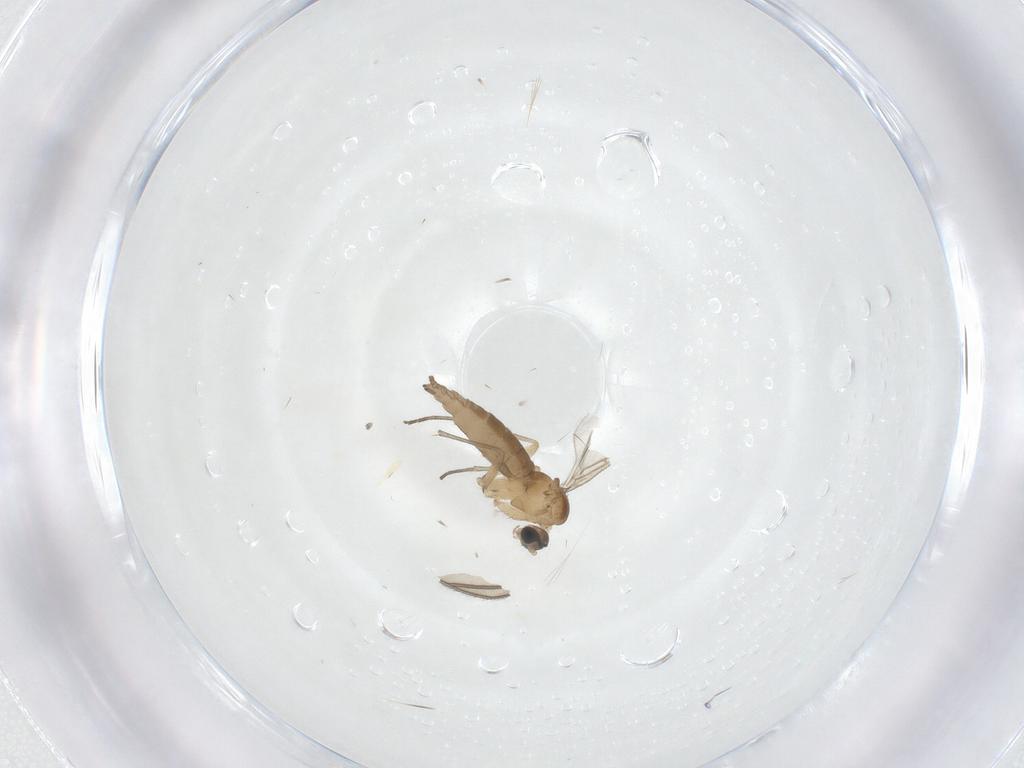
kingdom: Animalia
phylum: Arthropoda
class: Insecta
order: Diptera
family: Sciaridae
